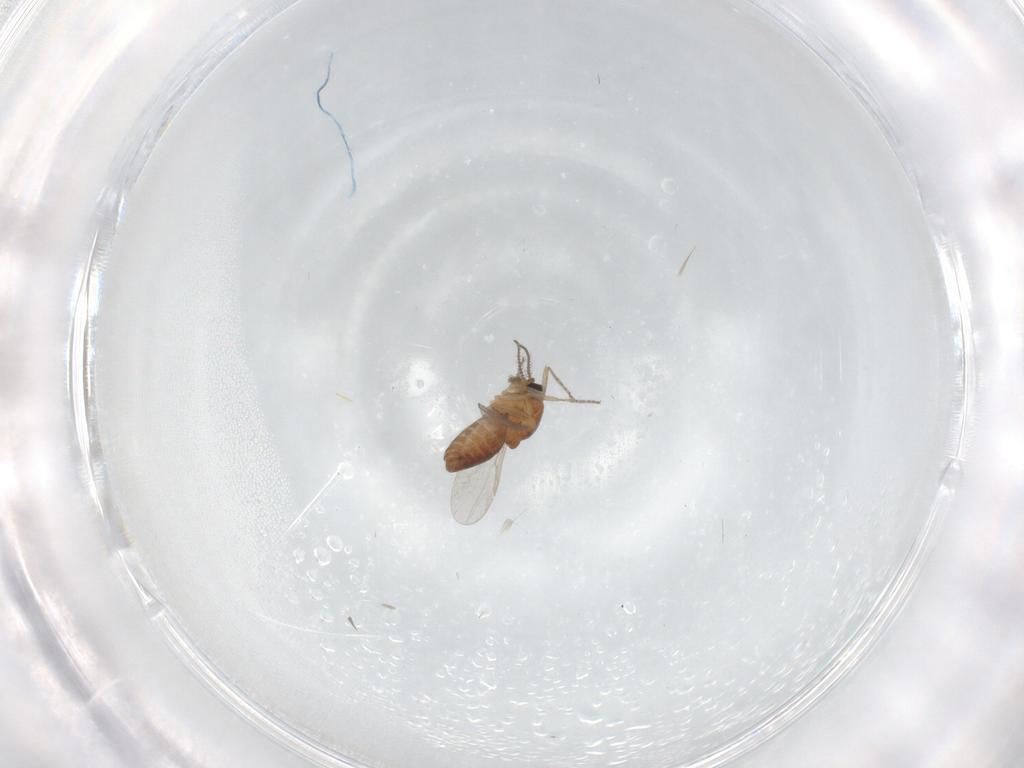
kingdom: Animalia
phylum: Arthropoda
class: Insecta
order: Diptera
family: Ceratopogonidae
